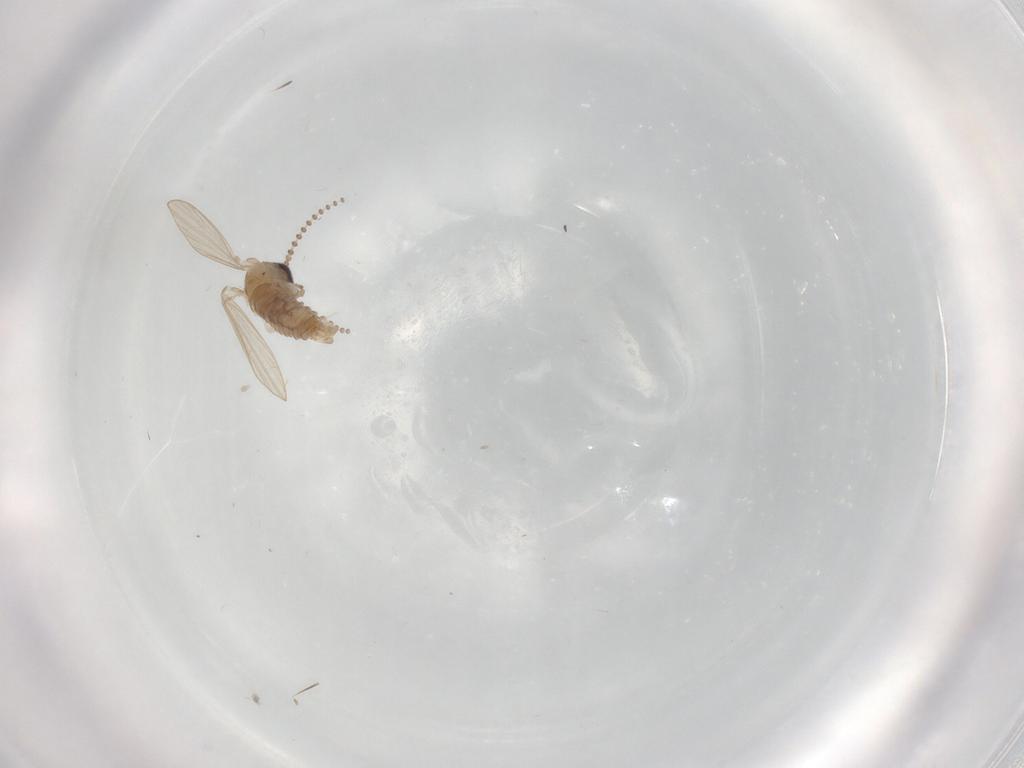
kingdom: Animalia
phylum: Arthropoda
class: Insecta
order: Diptera
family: Psychodidae
